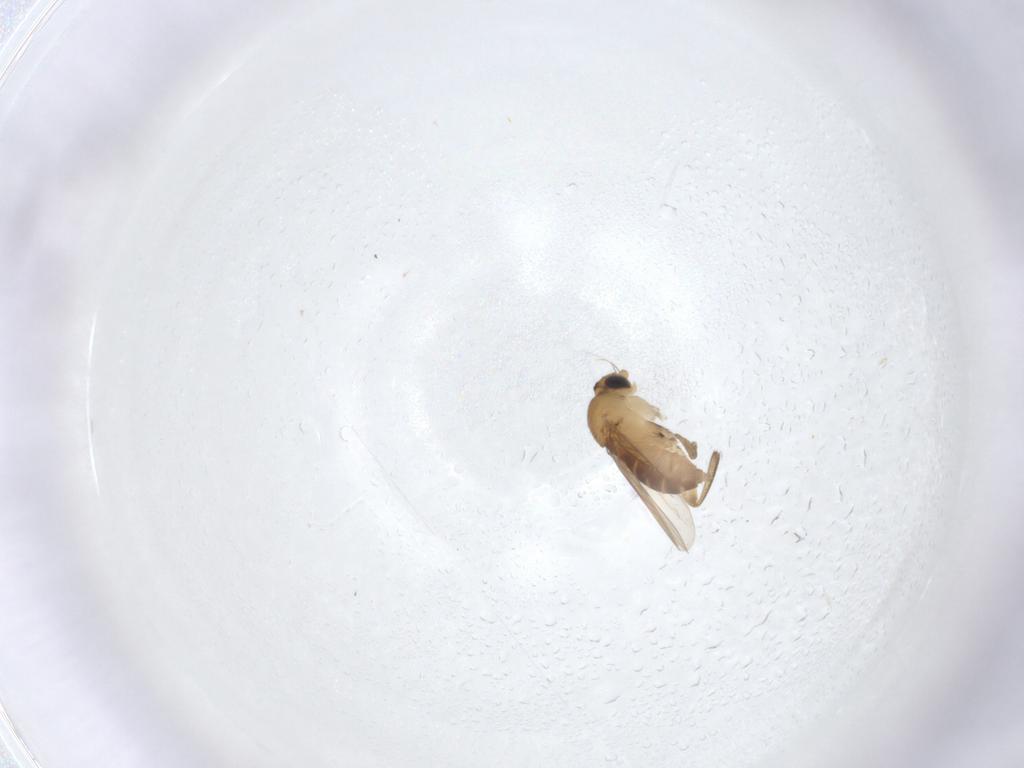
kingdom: Animalia
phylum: Arthropoda
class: Insecta
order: Diptera
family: Phoridae
